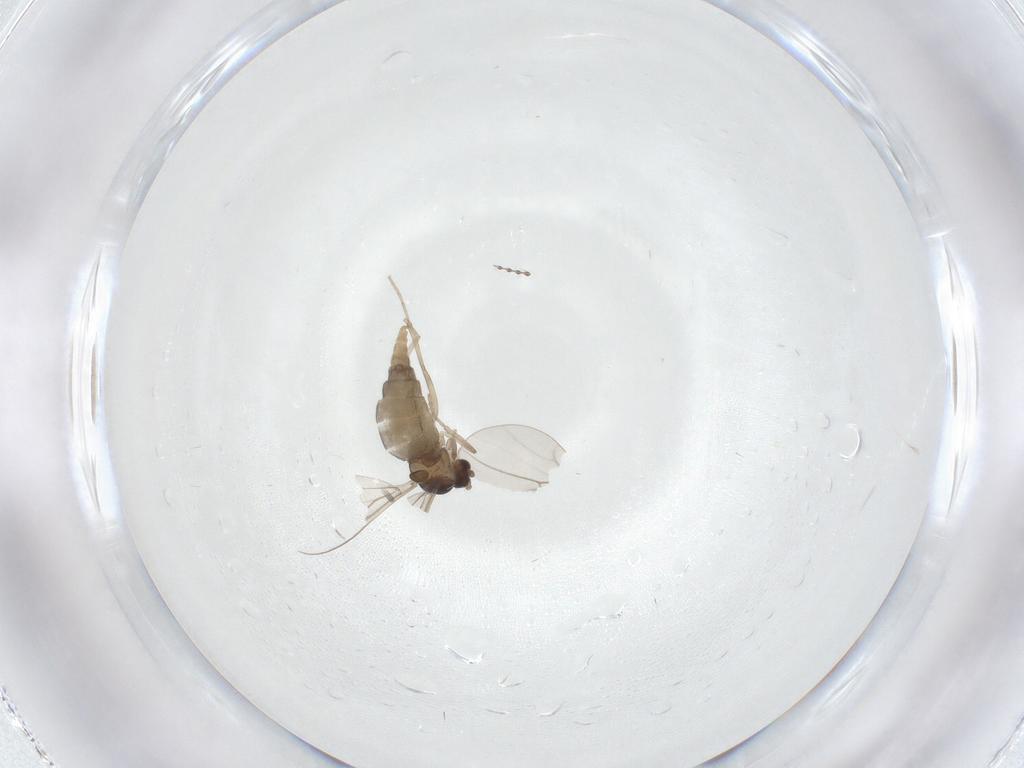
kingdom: Animalia
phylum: Arthropoda
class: Insecta
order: Diptera
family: Cecidomyiidae
